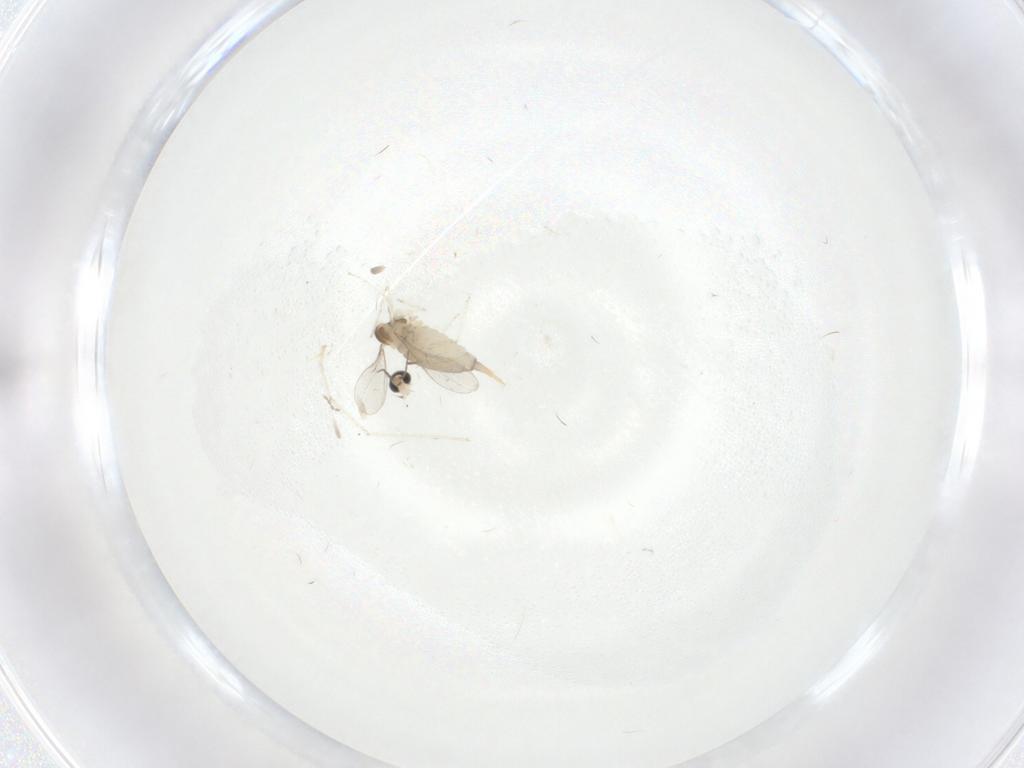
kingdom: Animalia
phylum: Arthropoda
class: Insecta
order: Diptera
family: Cecidomyiidae
